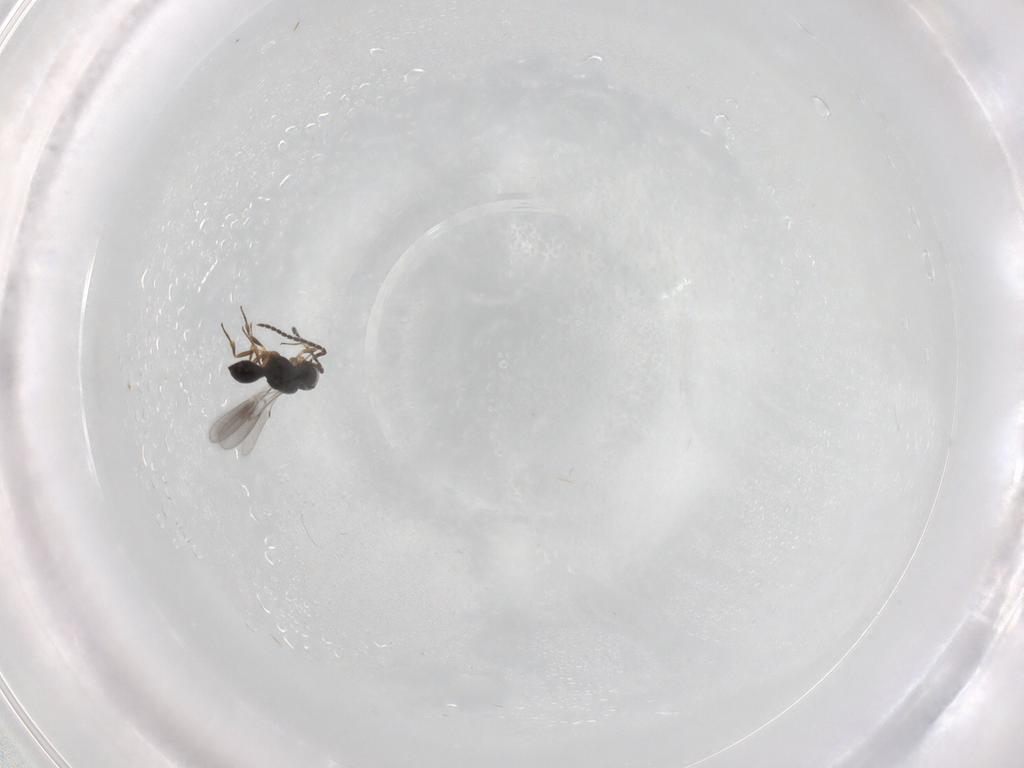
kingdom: Animalia
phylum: Arthropoda
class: Insecta
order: Hymenoptera
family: Scelionidae
